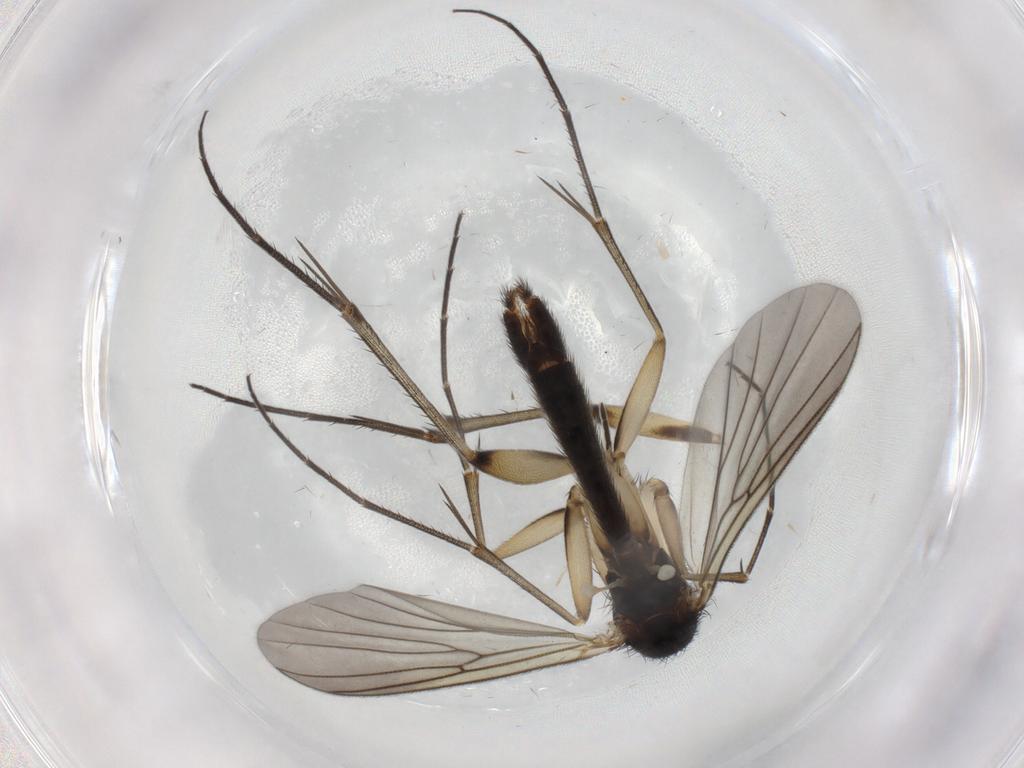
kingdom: Animalia
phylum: Arthropoda
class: Insecta
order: Diptera
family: Mycetophilidae
